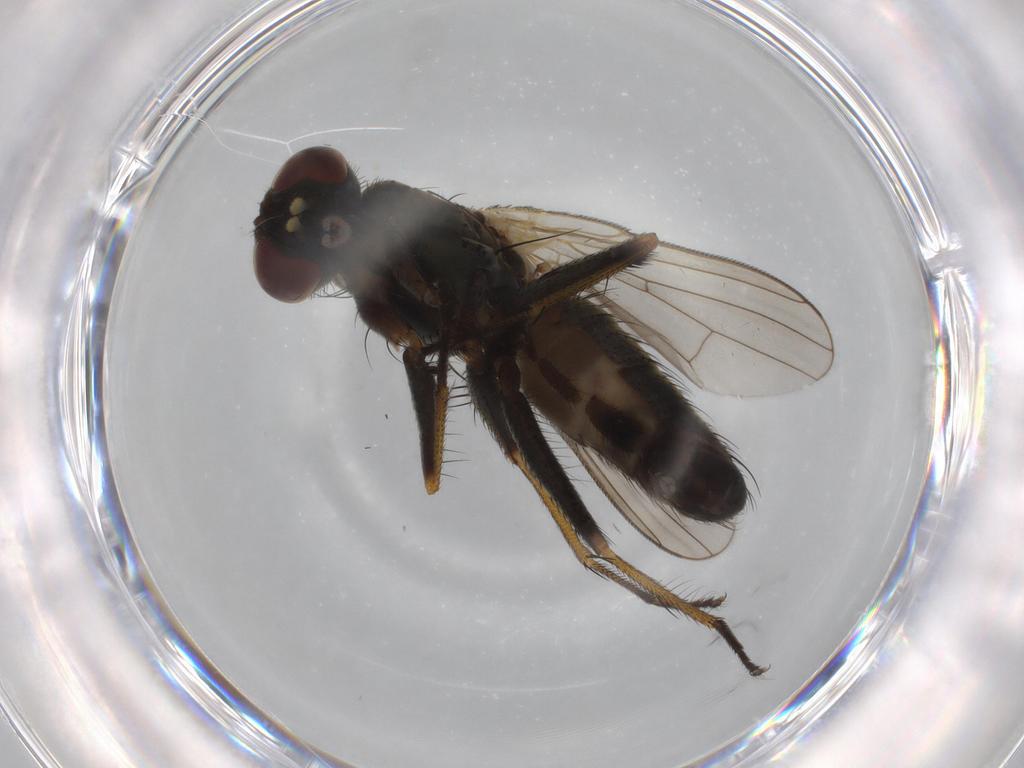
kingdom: Animalia
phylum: Arthropoda
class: Insecta
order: Diptera
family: Muscidae
